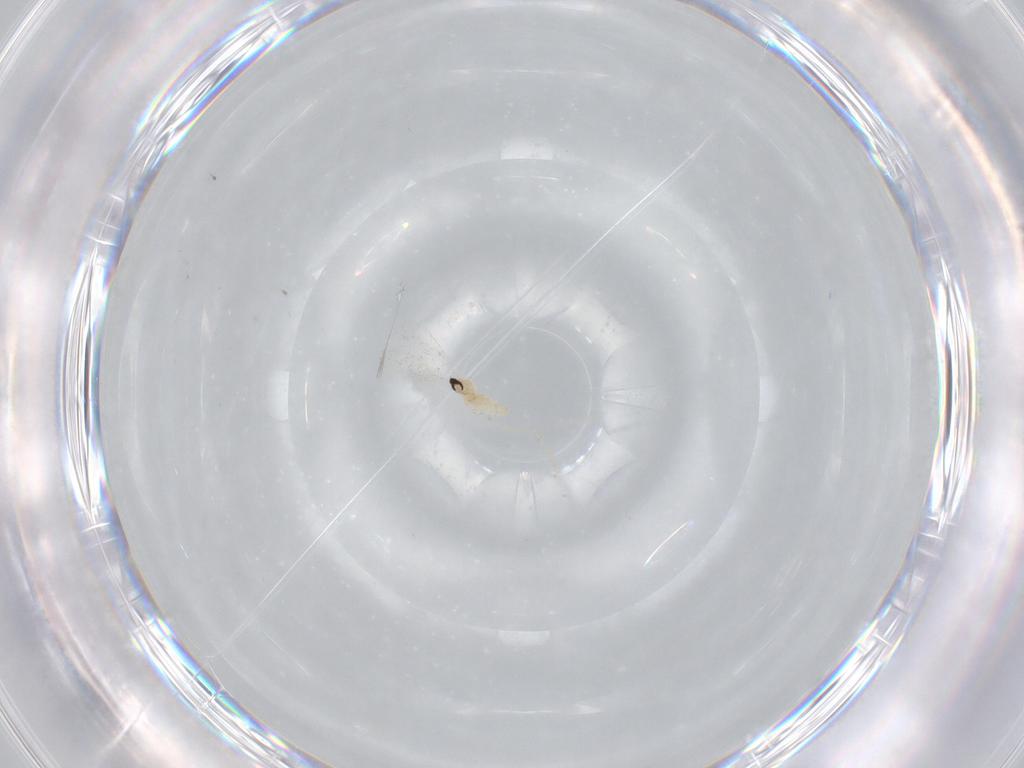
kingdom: Animalia
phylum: Arthropoda
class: Insecta
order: Diptera
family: Cecidomyiidae
